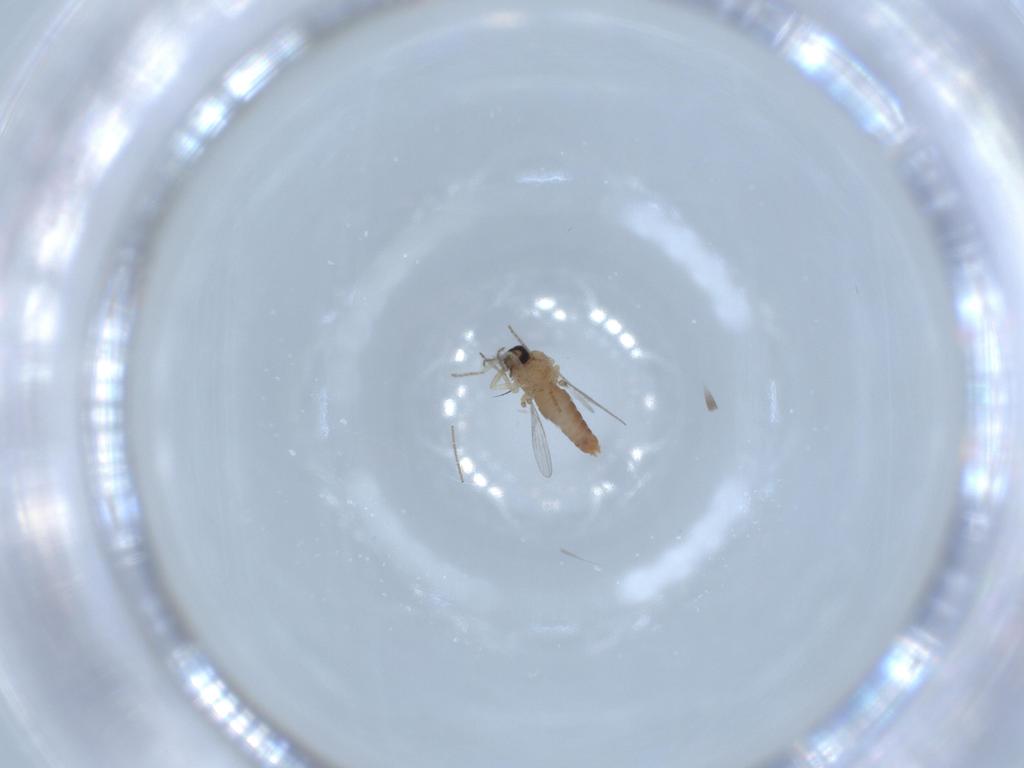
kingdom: Animalia
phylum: Arthropoda
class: Insecta
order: Diptera
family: Ceratopogonidae
